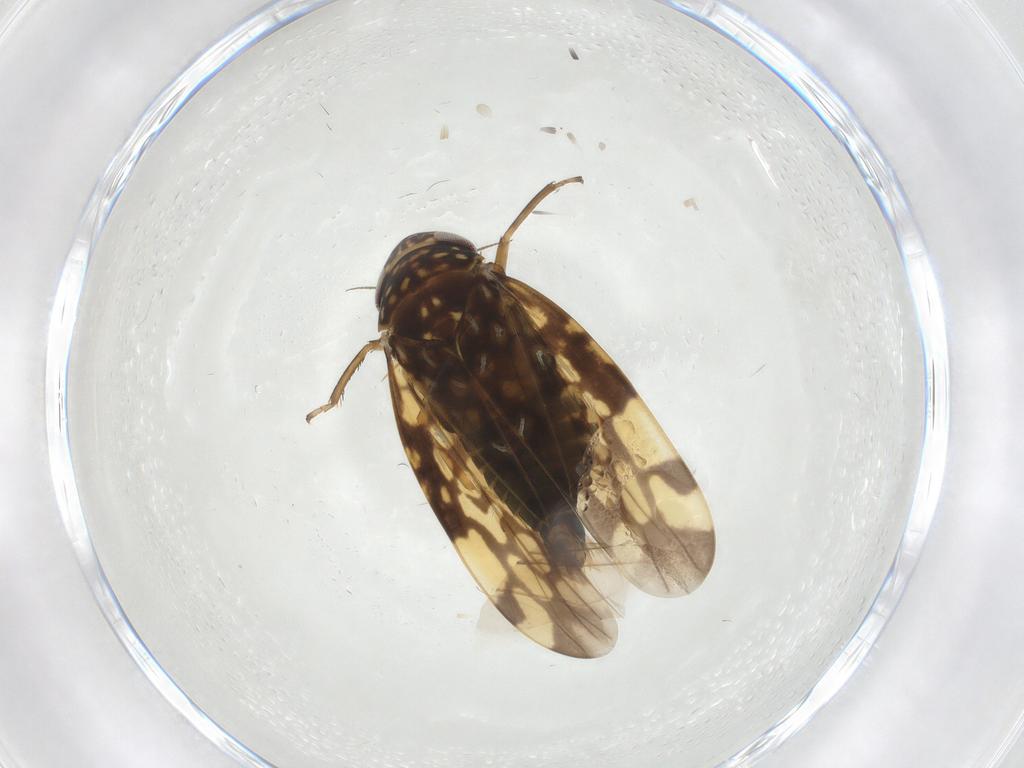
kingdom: Animalia
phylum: Arthropoda
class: Insecta
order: Hemiptera
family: Cicadellidae
